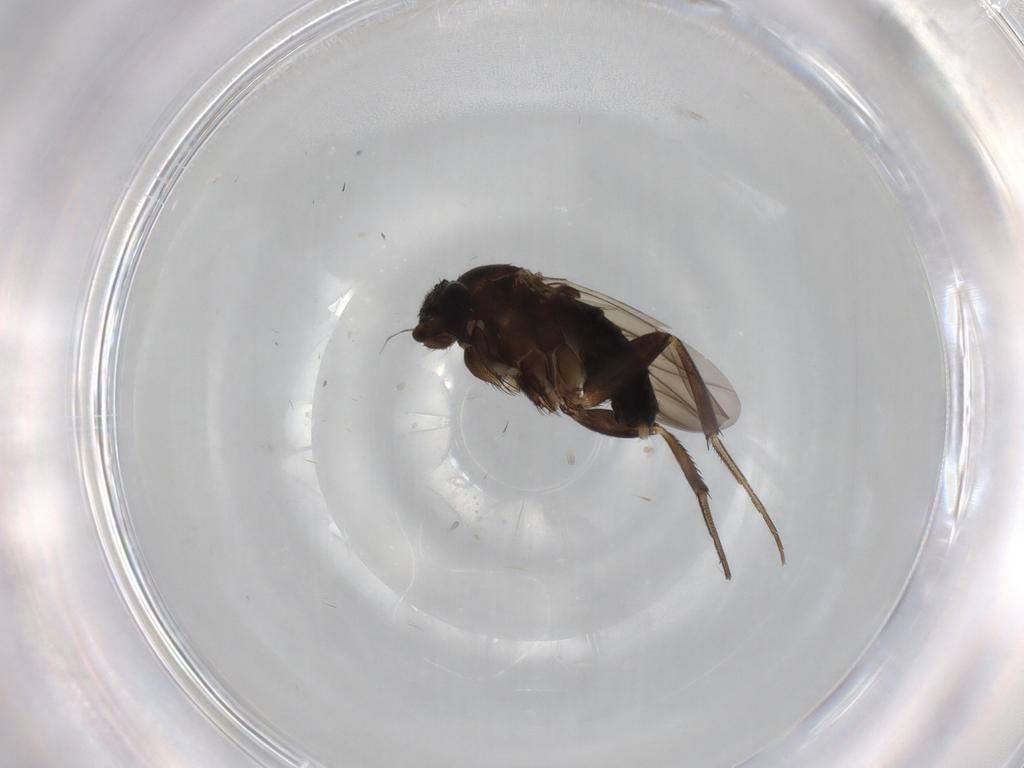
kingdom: Animalia
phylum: Arthropoda
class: Insecta
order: Diptera
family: Phoridae
